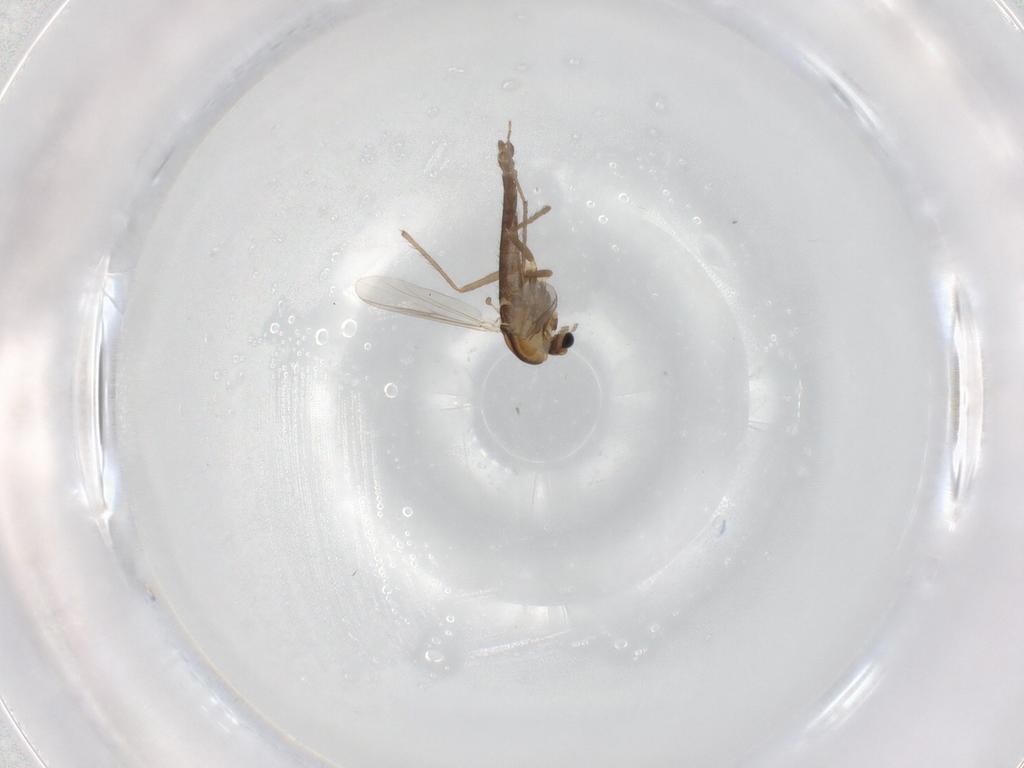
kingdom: Animalia
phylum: Arthropoda
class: Insecta
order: Diptera
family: Chironomidae
